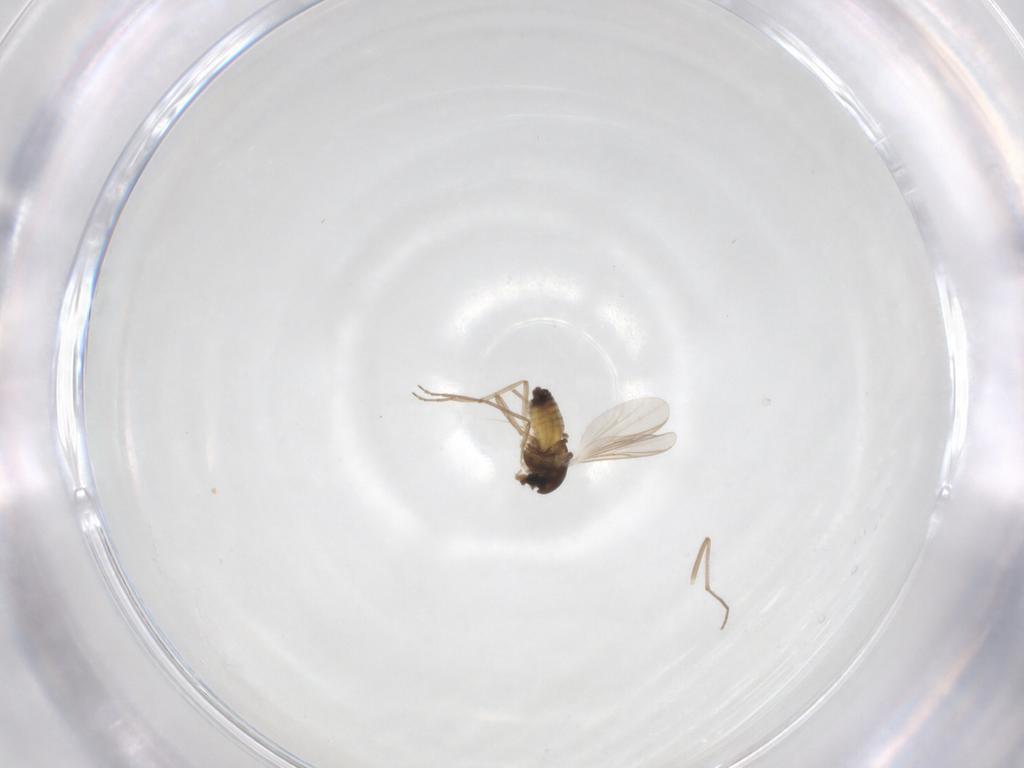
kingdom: Animalia
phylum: Arthropoda
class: Insecta
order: Diptera
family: Chironomidae
